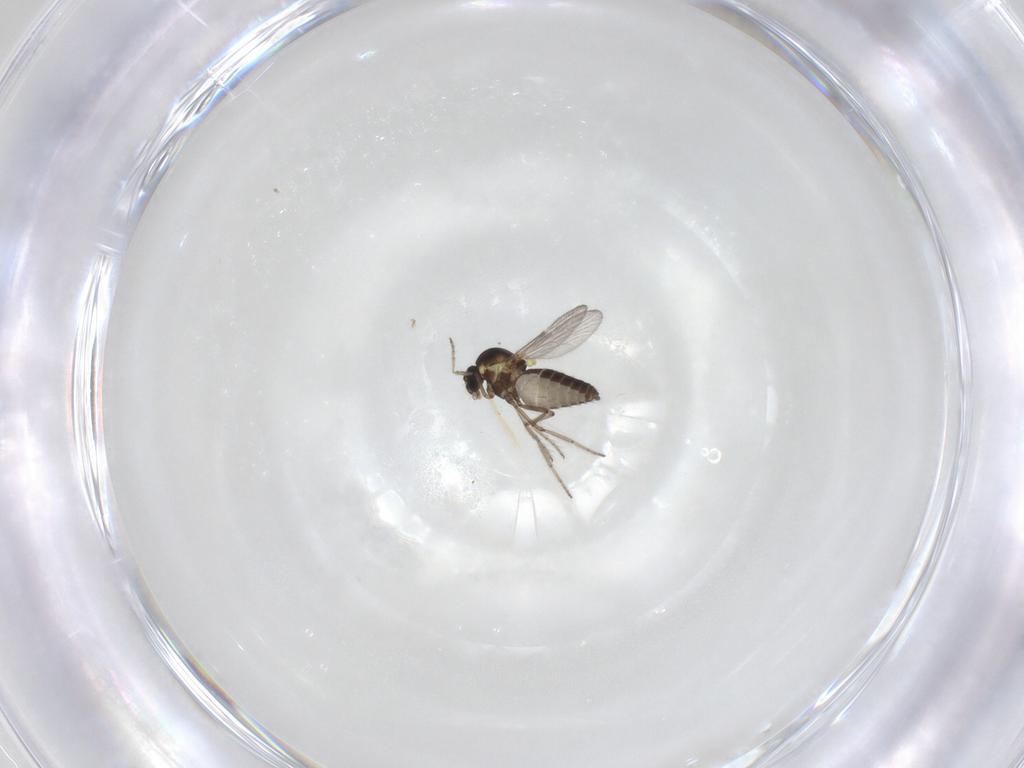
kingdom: Animalia
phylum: Arthropoda
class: Insecta
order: Diptera
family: Ceratopogonidae
